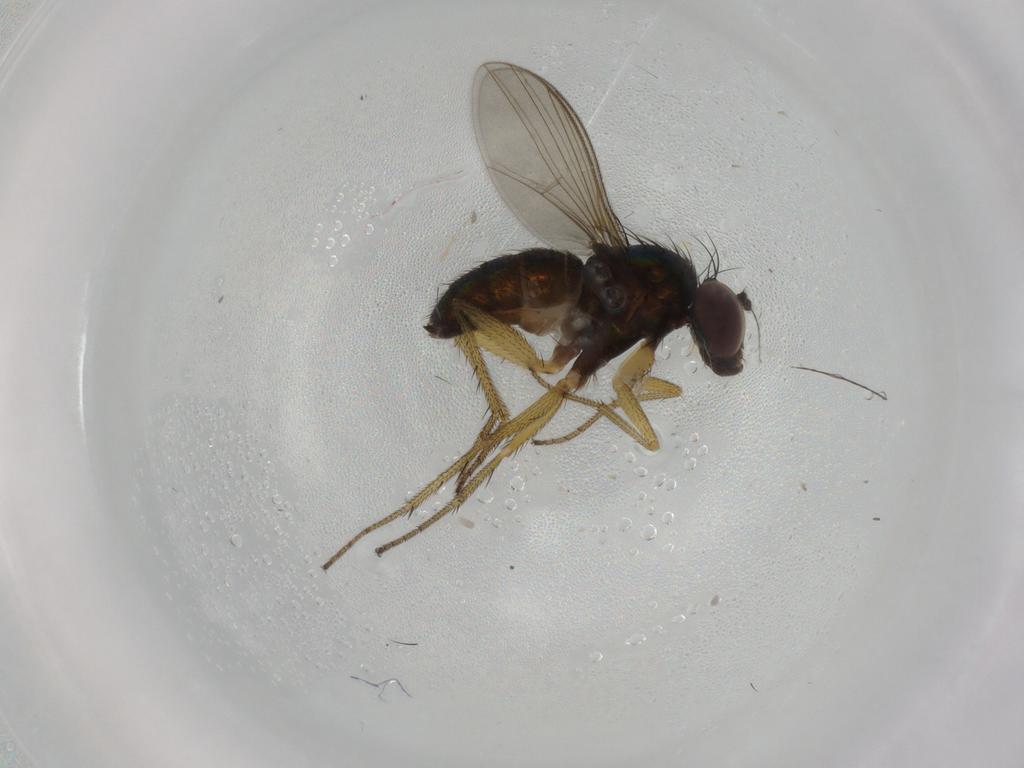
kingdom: Animalia
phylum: Arthropoda
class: Insecta
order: Diptera
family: Dolichopodidae
